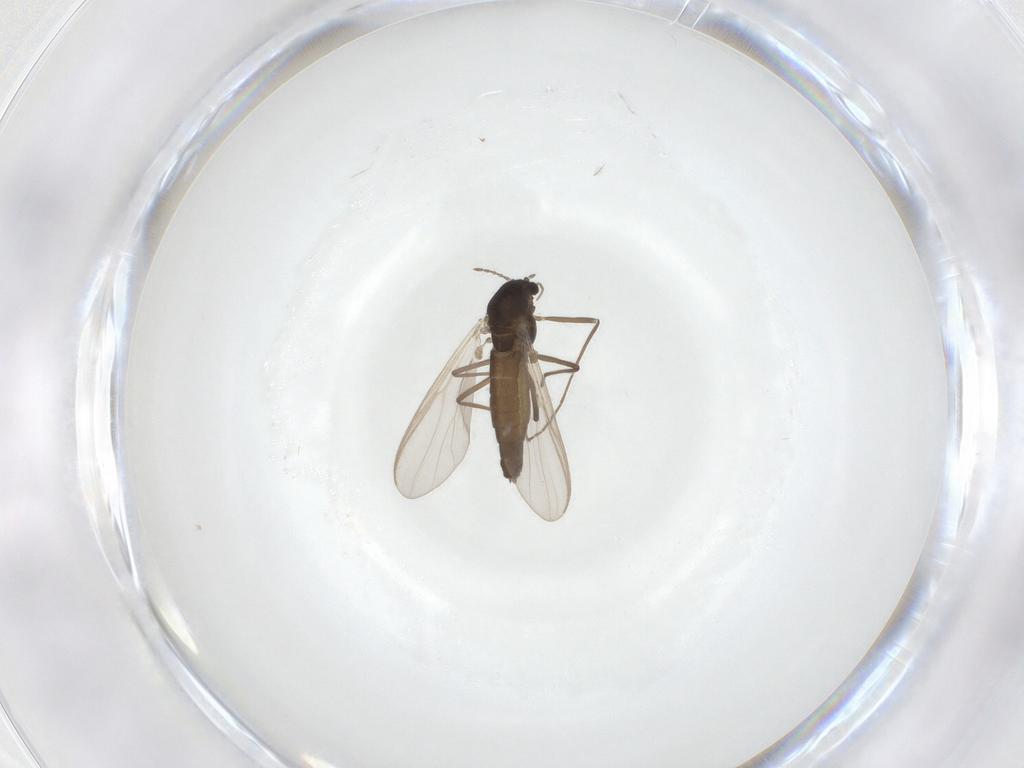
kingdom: Animalia
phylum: Arthropoda
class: Insecta
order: Diptera
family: Chironomidae
